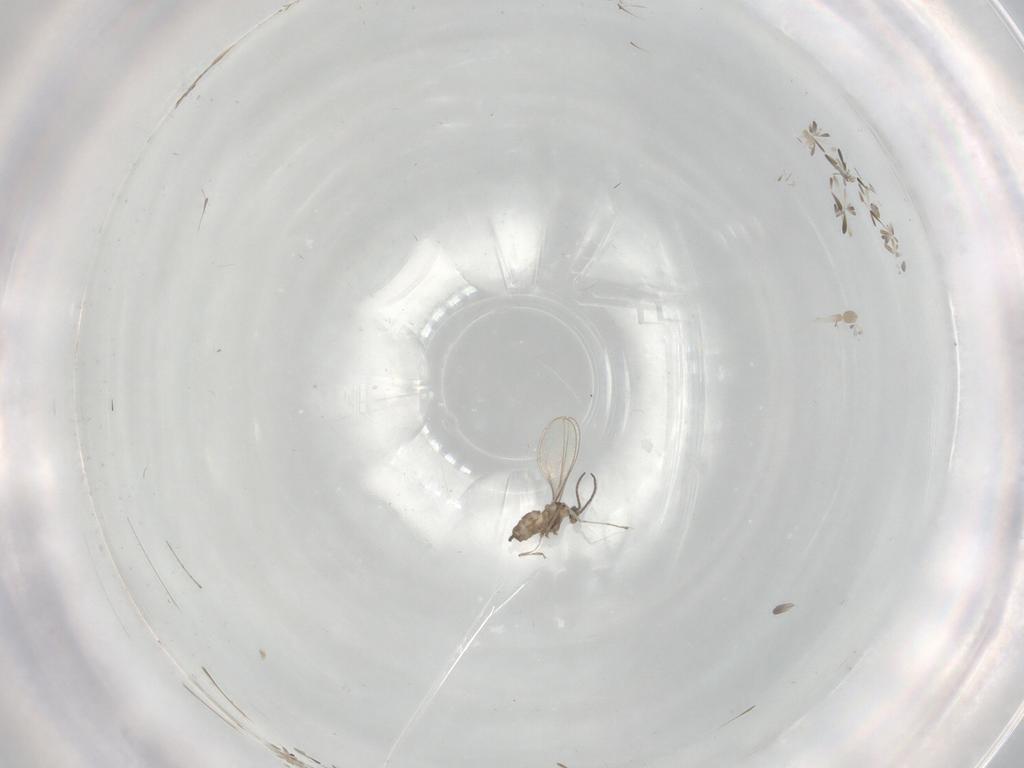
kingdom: Animalia
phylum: Arthropoda
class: Insecta
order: Diptera
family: Cecidomyiidae
